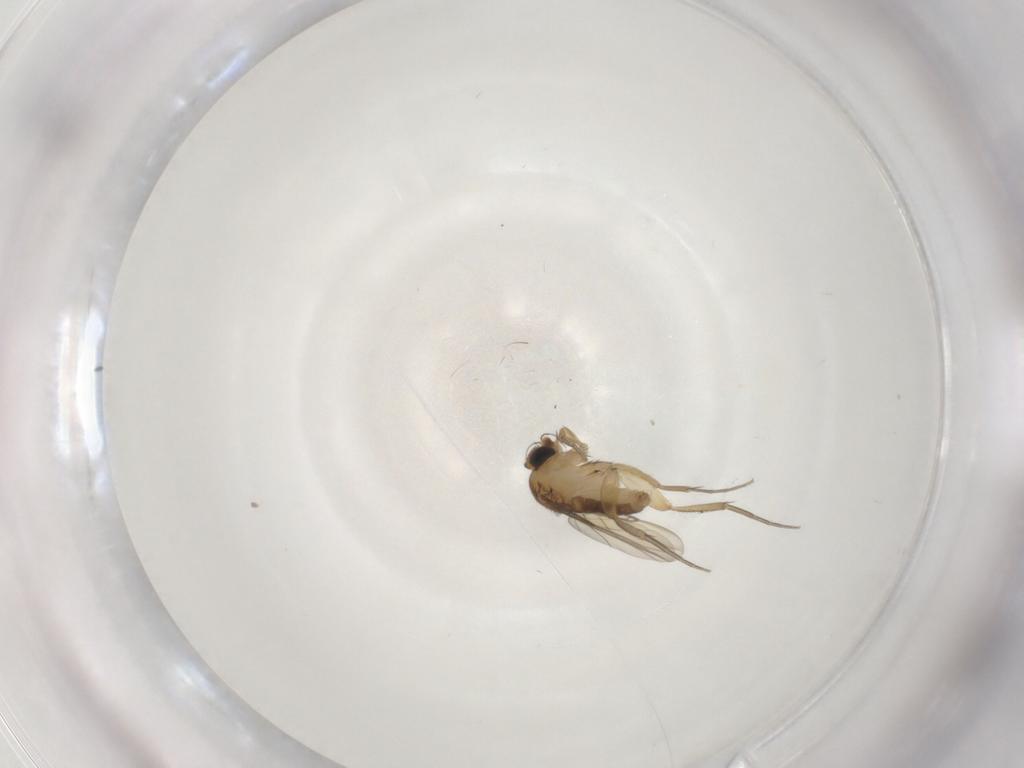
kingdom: Animalia
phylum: Arthropoda
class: Insecta
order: Diptera
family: Phoridae
